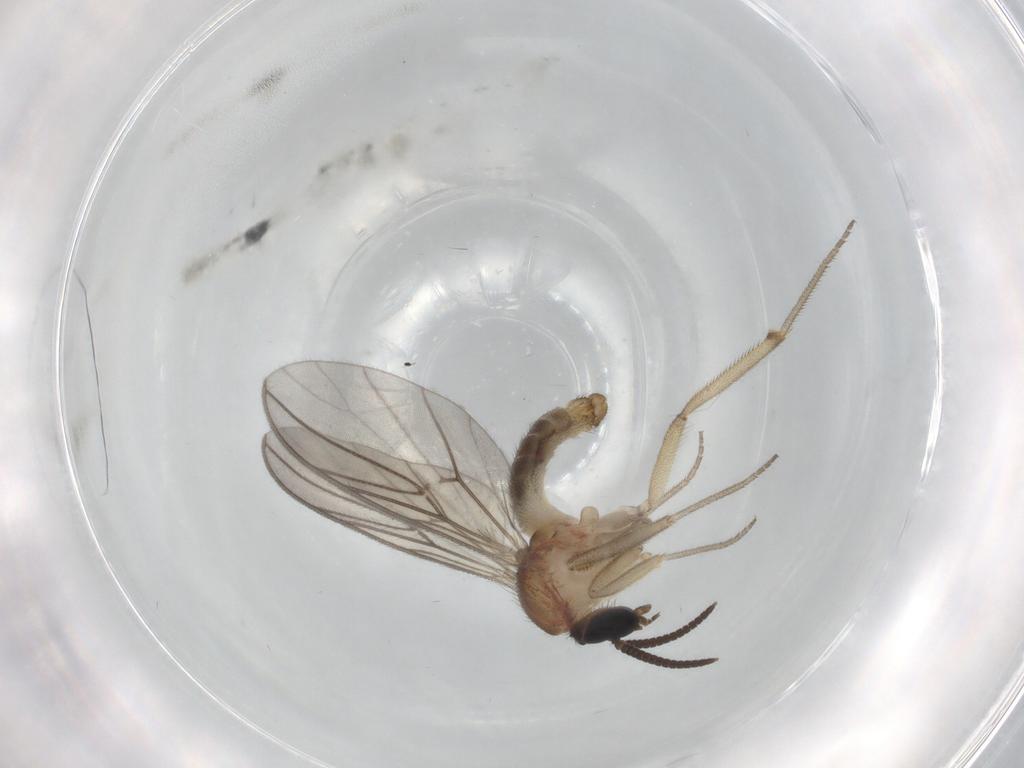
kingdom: Animalia
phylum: Arthropoda
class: Insecta
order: Diptera
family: Anisopodidae
